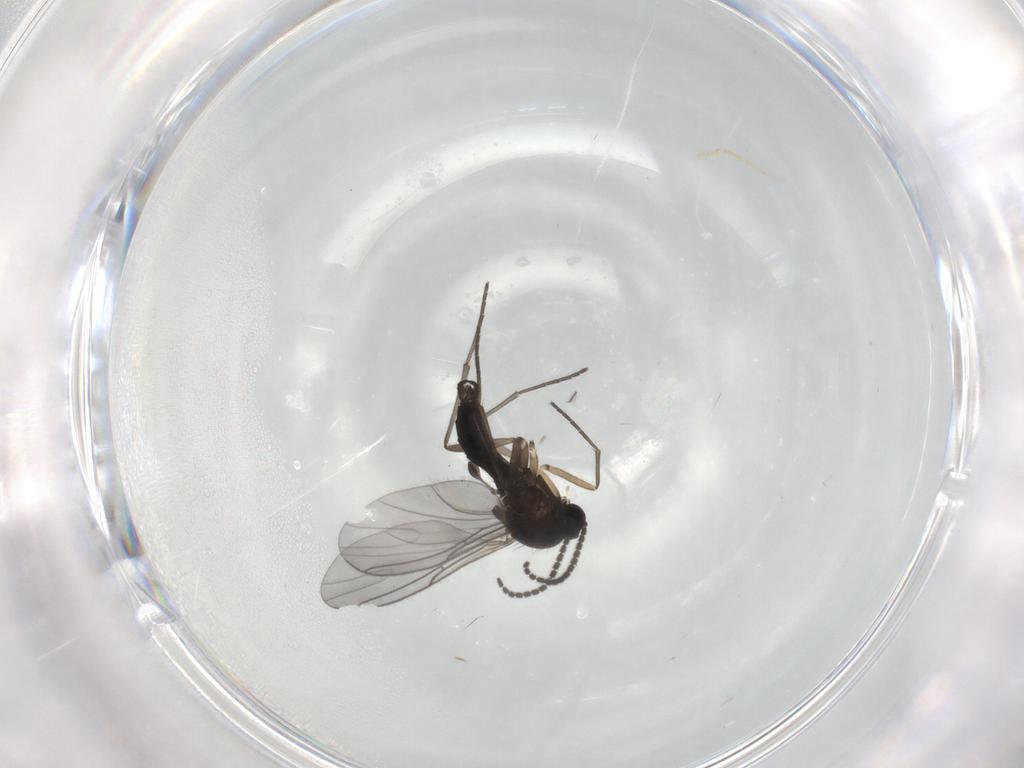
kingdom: Animalia
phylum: Arthropoda
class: Insecta
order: Diptera
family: Sciaridae
